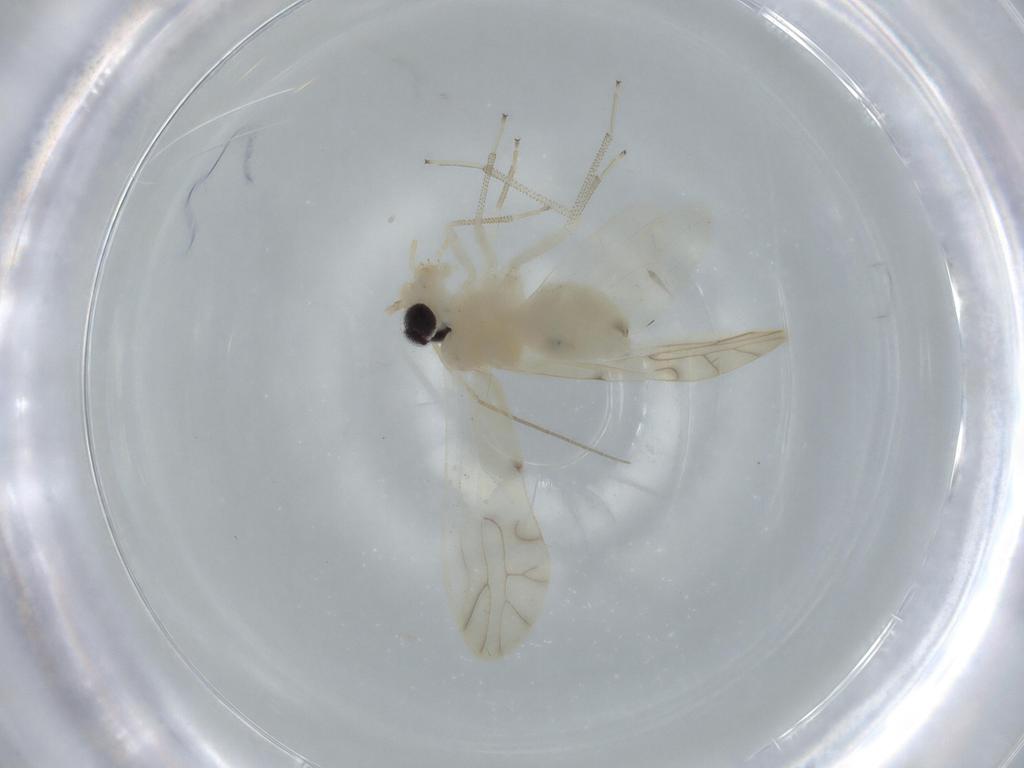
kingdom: Animalia
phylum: Arthropoda
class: Insecta
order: Psocodea
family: Caeciliusidae
